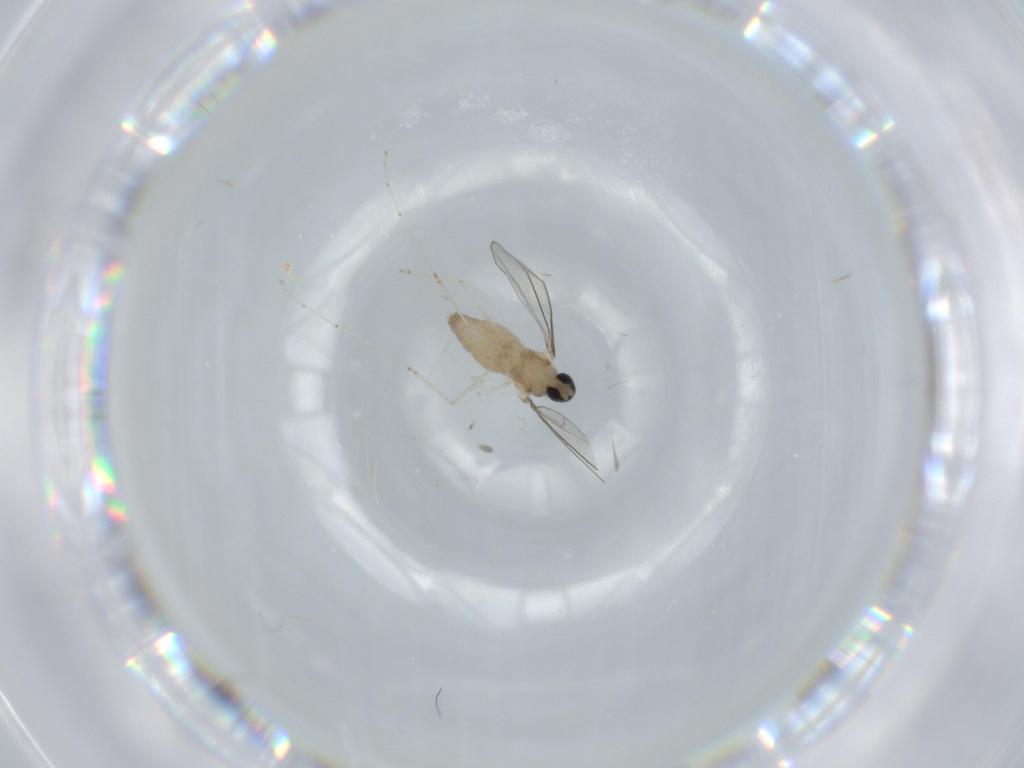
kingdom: Animalia
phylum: Arthropoda
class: Insecta
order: Diptera
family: Cecidomyiidae
